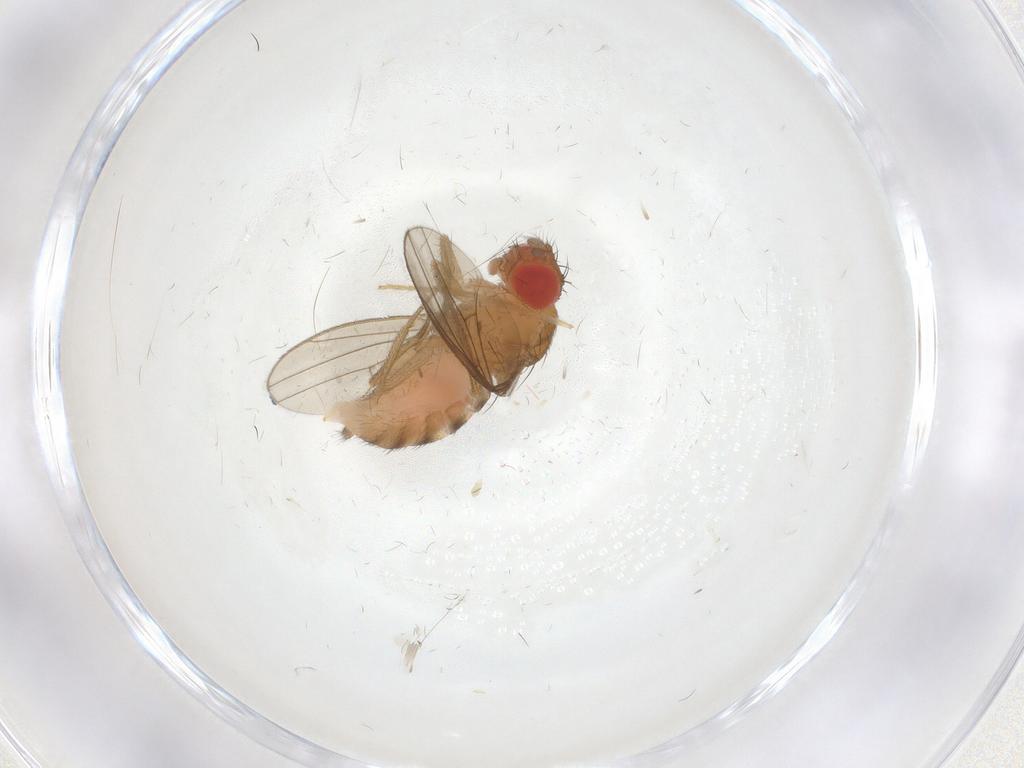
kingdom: Animalia
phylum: Arthropoda
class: Insecta
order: Diptera
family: Drosophilidae
